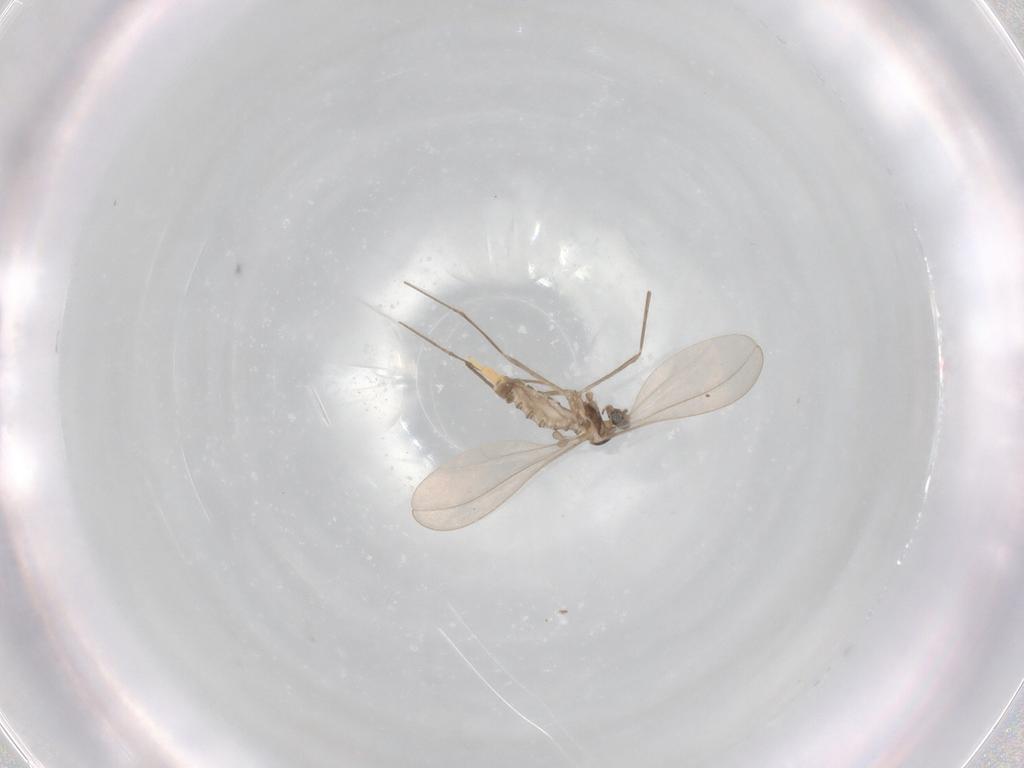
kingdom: Animalia
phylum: Arthropoda
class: Insecta
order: Diptera
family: Cecidomyiidae
